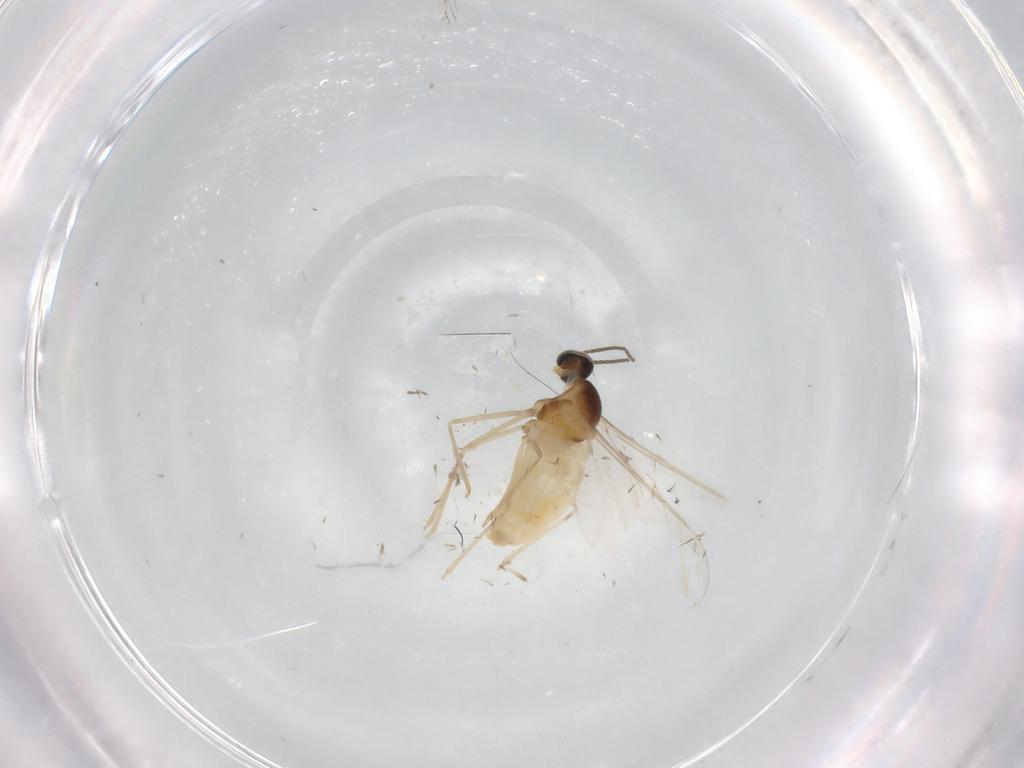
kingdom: Animalia
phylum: Arthropoda
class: Insecta
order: Diptera
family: Cecidomyiidae
